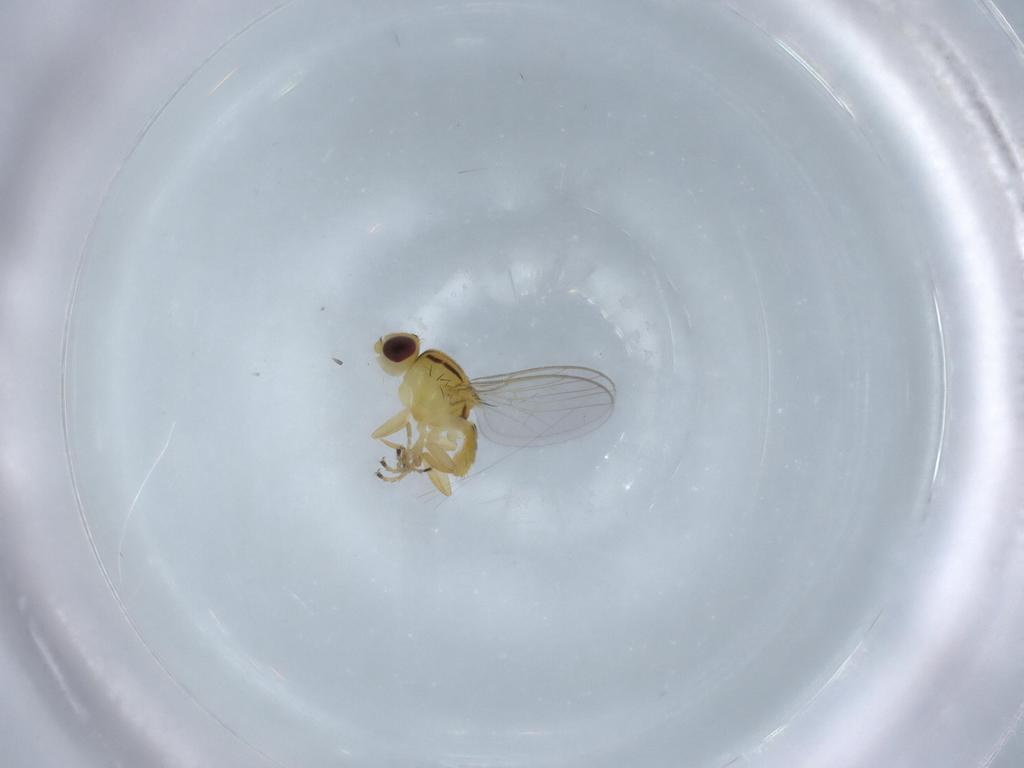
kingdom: Animalia
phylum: Arthropoda
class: Insecta
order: Diptera
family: Chloropidae
